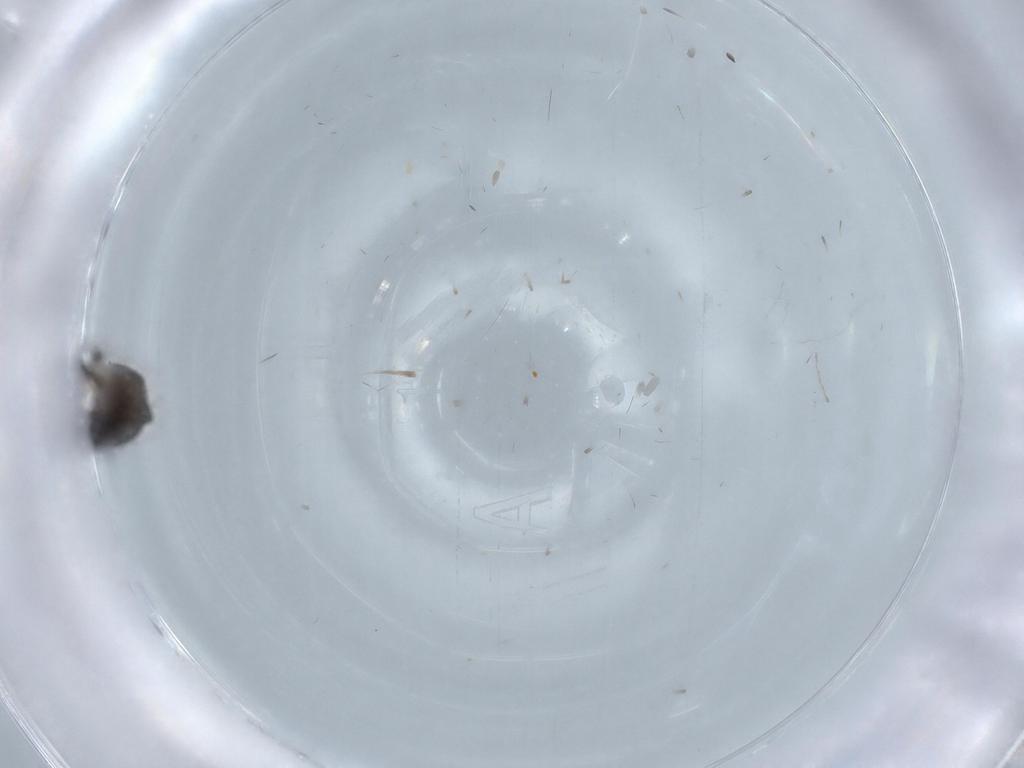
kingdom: Animalia
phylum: Arthropoda
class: Insecta
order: Diptera
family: Phoridae
